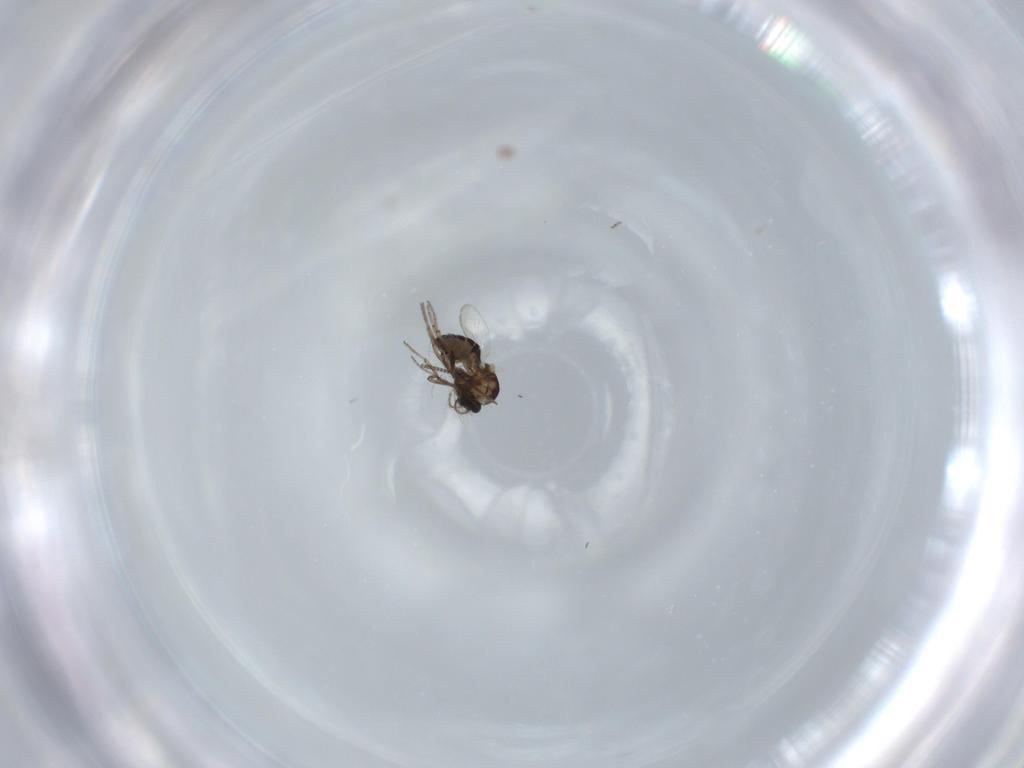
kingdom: Animalia
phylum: Arthropoda
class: Insecta
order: Diptera
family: Ceratopogonidae
